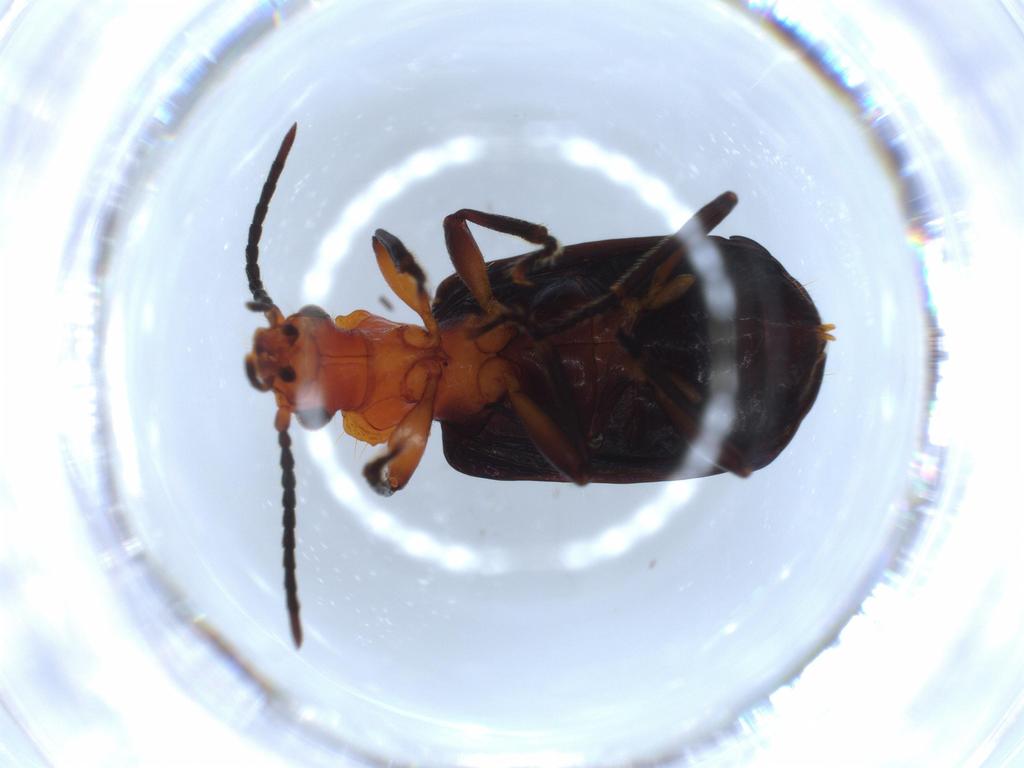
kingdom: Animalia
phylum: Arthropoda
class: Insecta
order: Coleoptera
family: Carabidae
